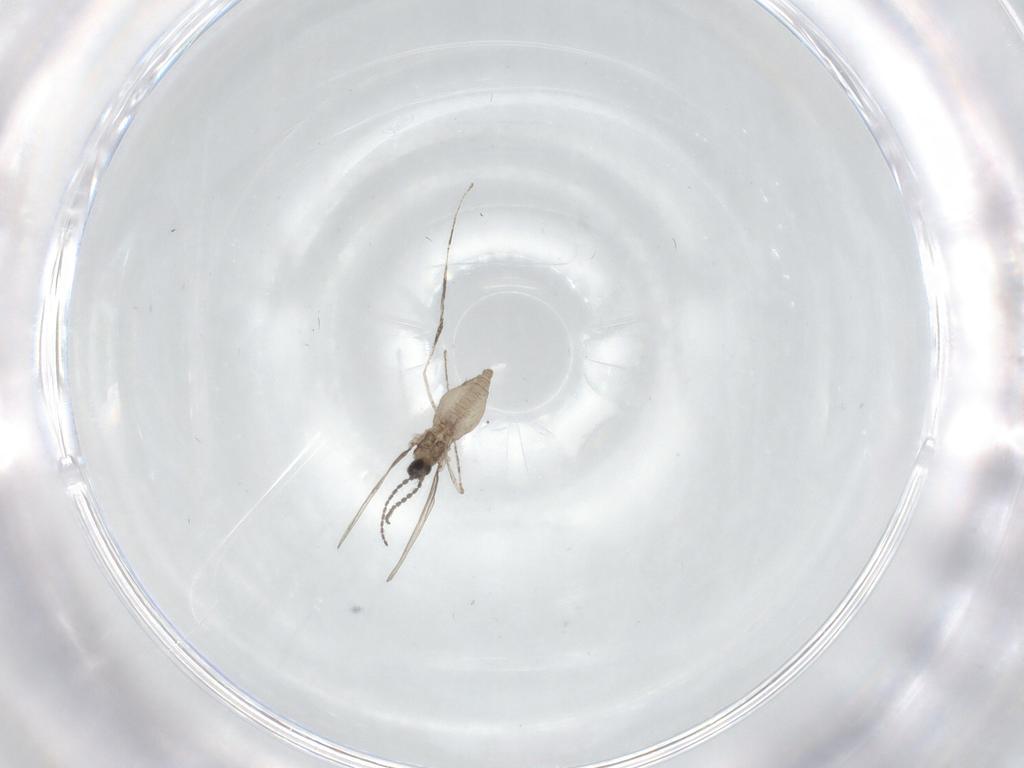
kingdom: Animalia
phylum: Arthropoda
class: Insecta
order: Diptera
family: Cecidomyiidae
